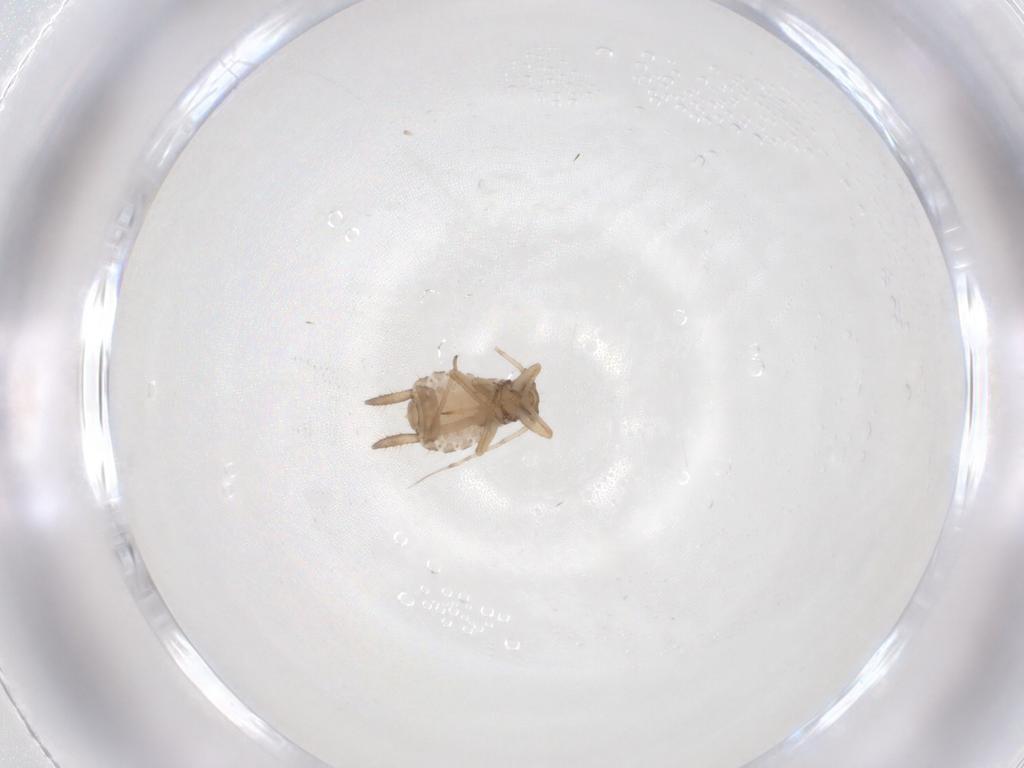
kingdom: Animalia
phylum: Arthropoda
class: Insecta
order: Hemiptera
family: Aphididae
